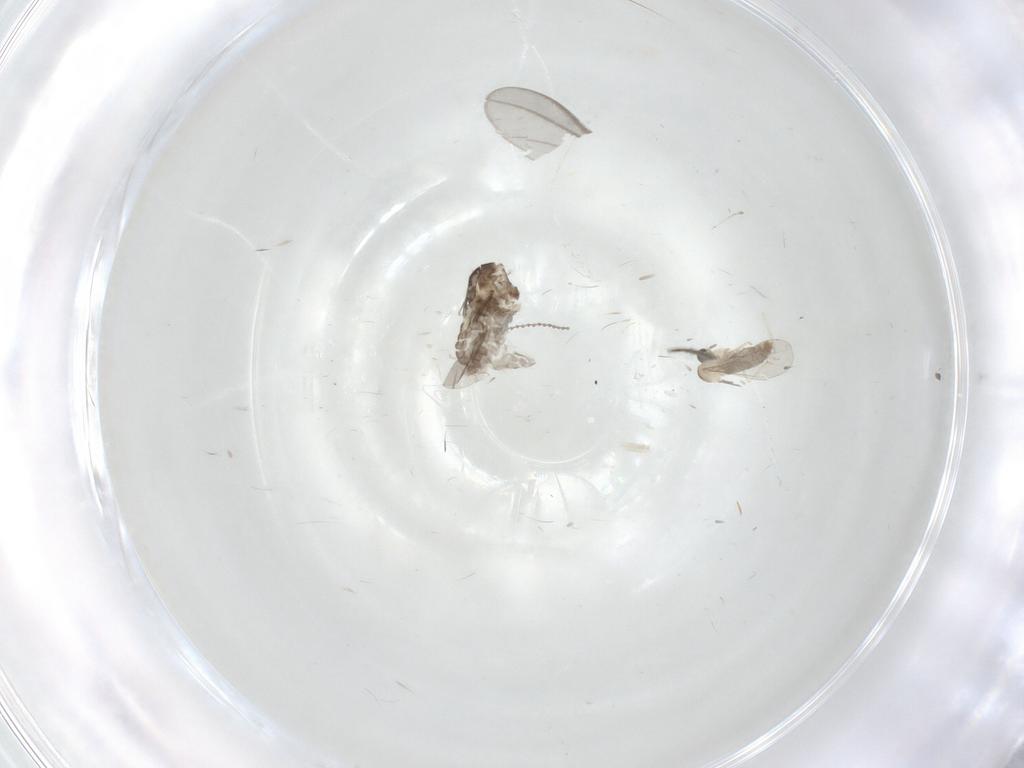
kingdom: Animalia
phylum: Arthropoda
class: Insecta
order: Diptera
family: Cecidomyiidae
